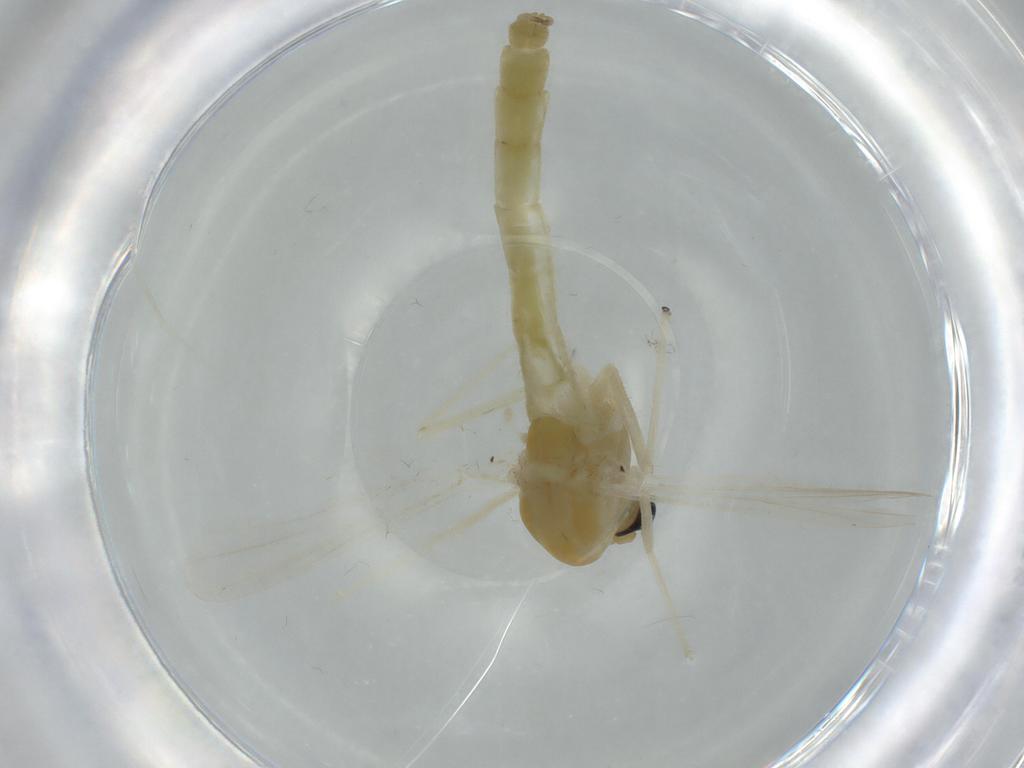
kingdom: Animalia
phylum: Arthropoda
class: Insecta
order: Diptera
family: Chironomidae
